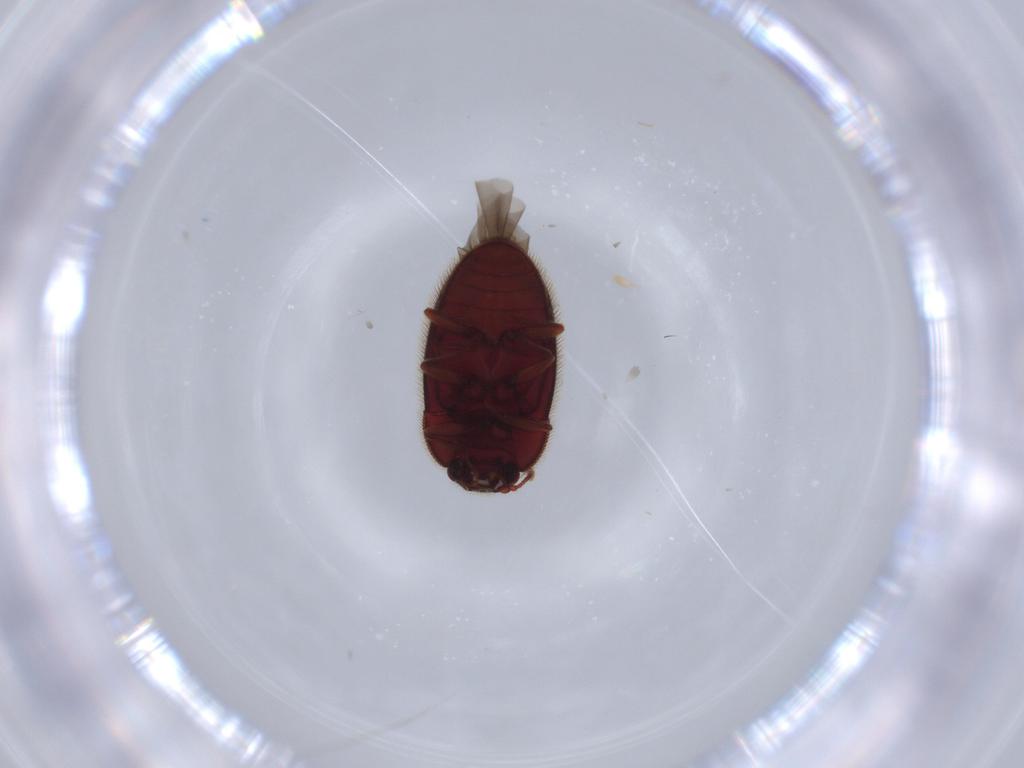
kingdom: Animalia
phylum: Arthropoda
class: Insecta
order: Coleoptera
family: Biphyllidae
